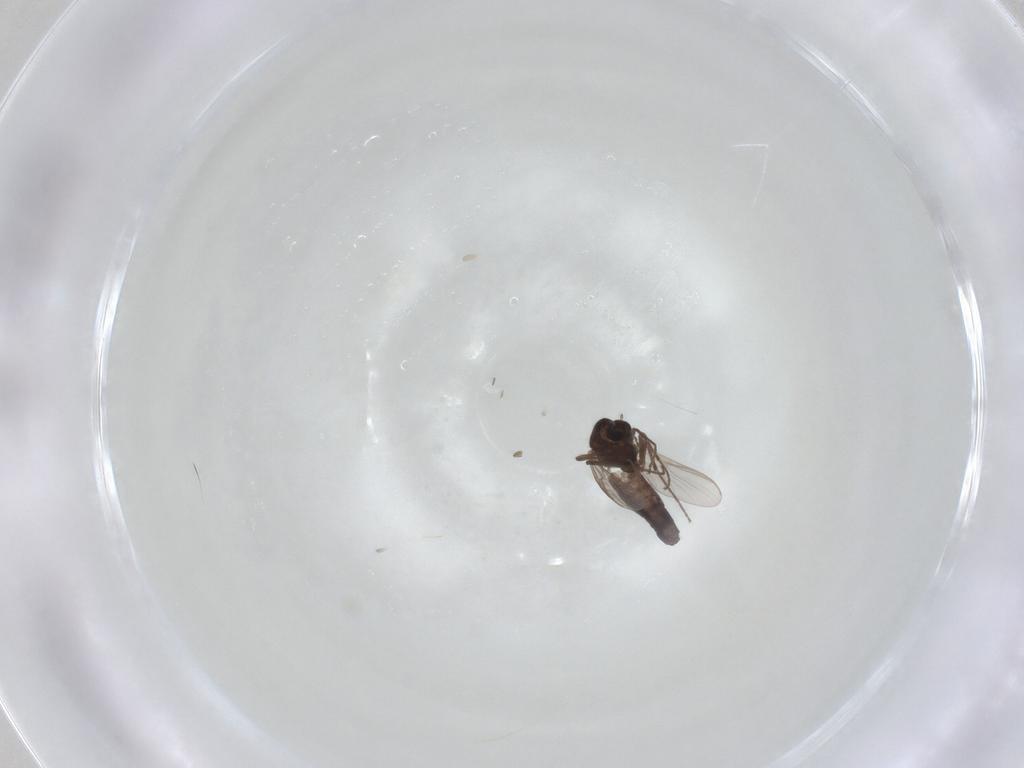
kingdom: Animalia
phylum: Arthropoda
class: Insecta
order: Diptera
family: Chironomidae
